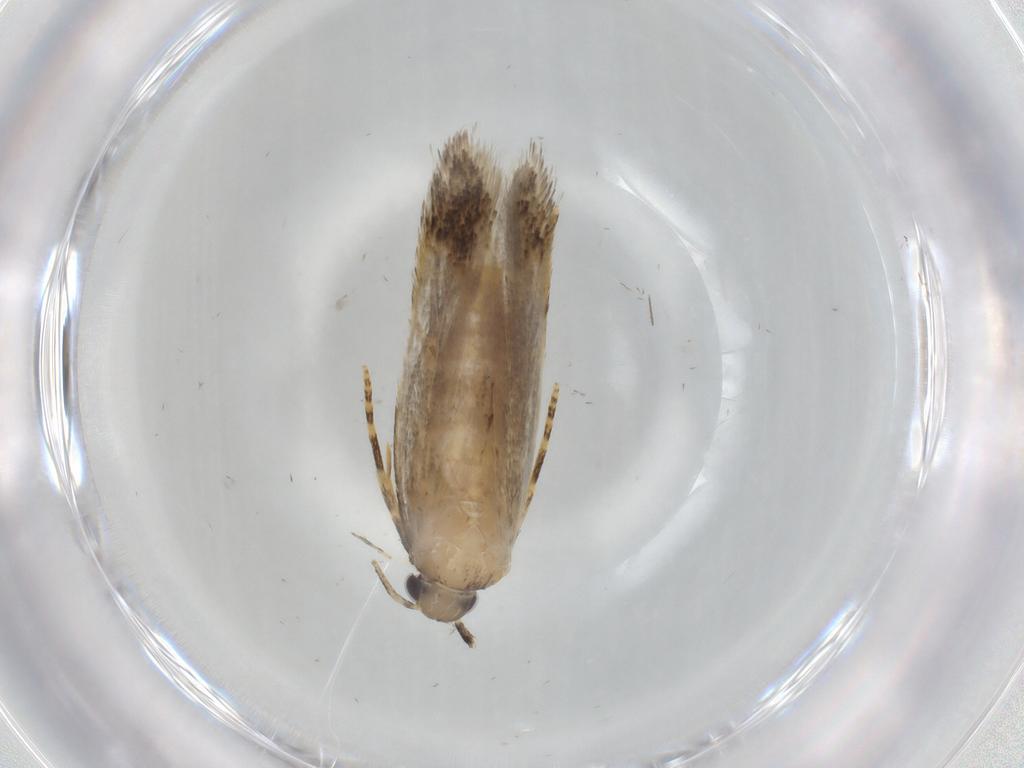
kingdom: Animalia
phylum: Arthropoda
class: Insecta
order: Lepidoptera
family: Autostichidae
